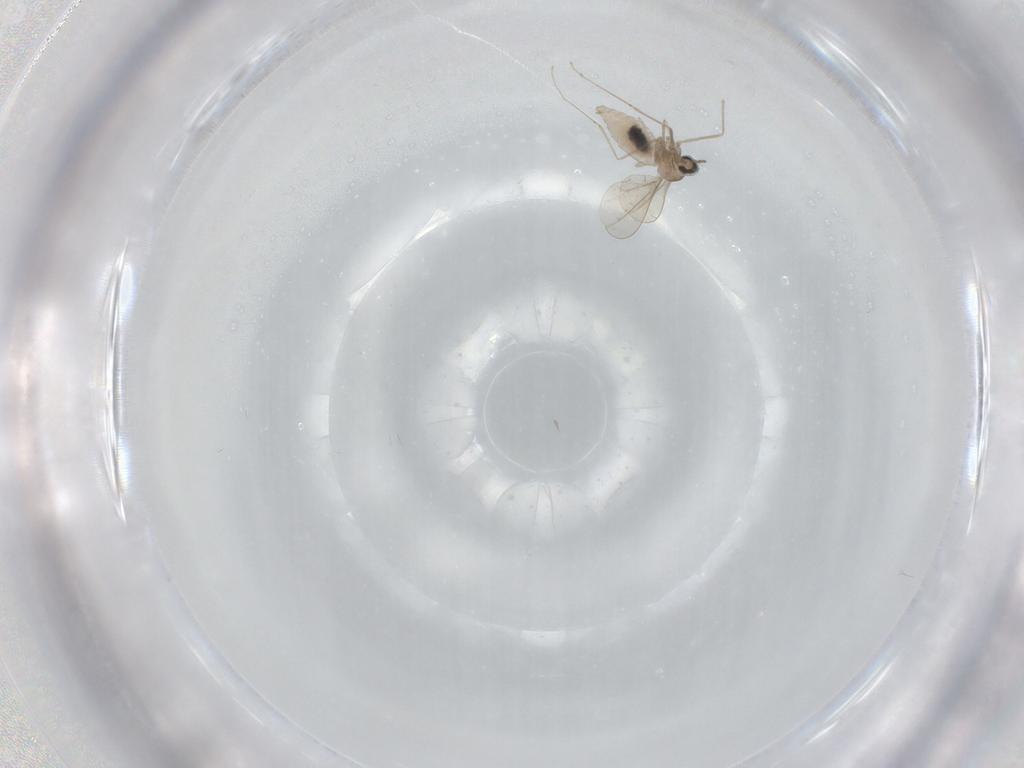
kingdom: Animalia
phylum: Arthropoda
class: Insecta
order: Diptera
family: Cecidomyiidae
